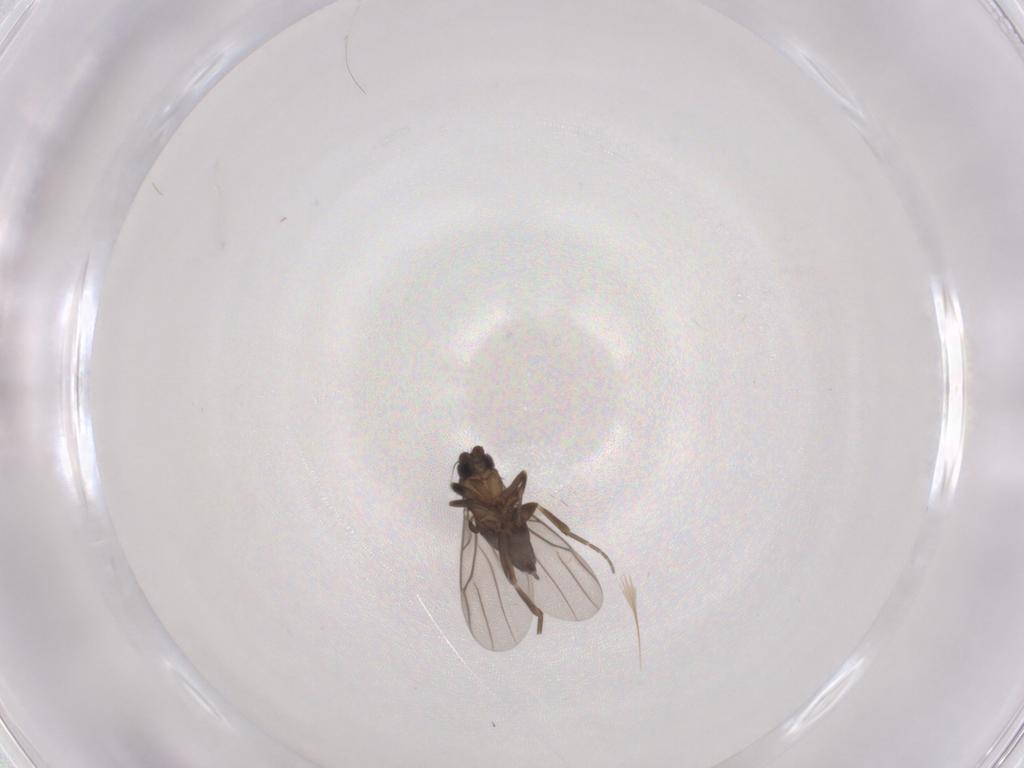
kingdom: Animalia
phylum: Arthropoda
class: Insecta
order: Diptera
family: Phoridae
